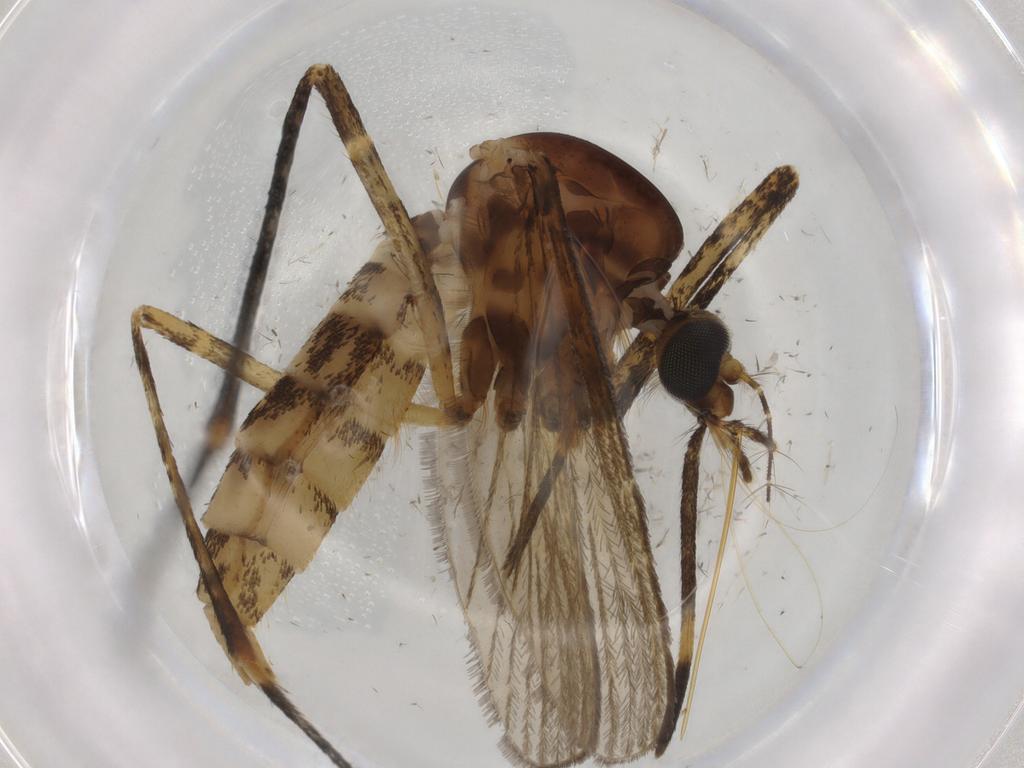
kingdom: Animalia
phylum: Arthropoda
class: Insecta
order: Diptera
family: Culicidae
